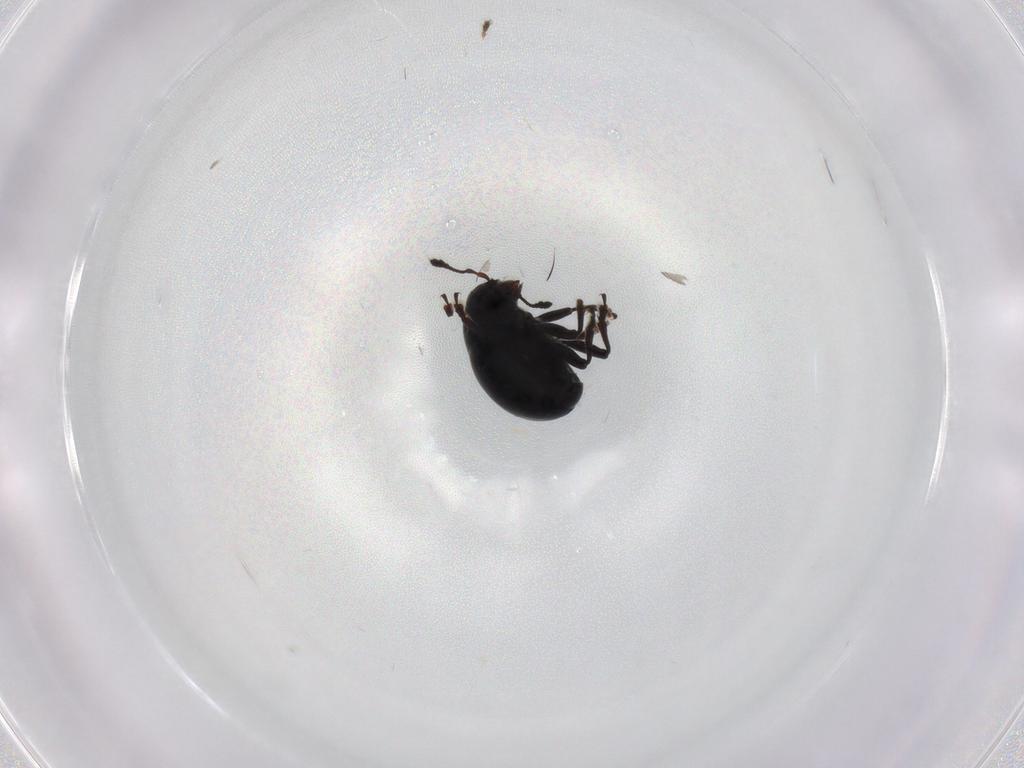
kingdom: Animalia
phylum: Arthropoda
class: Insecta
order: Coleoptera
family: Anthribidae
